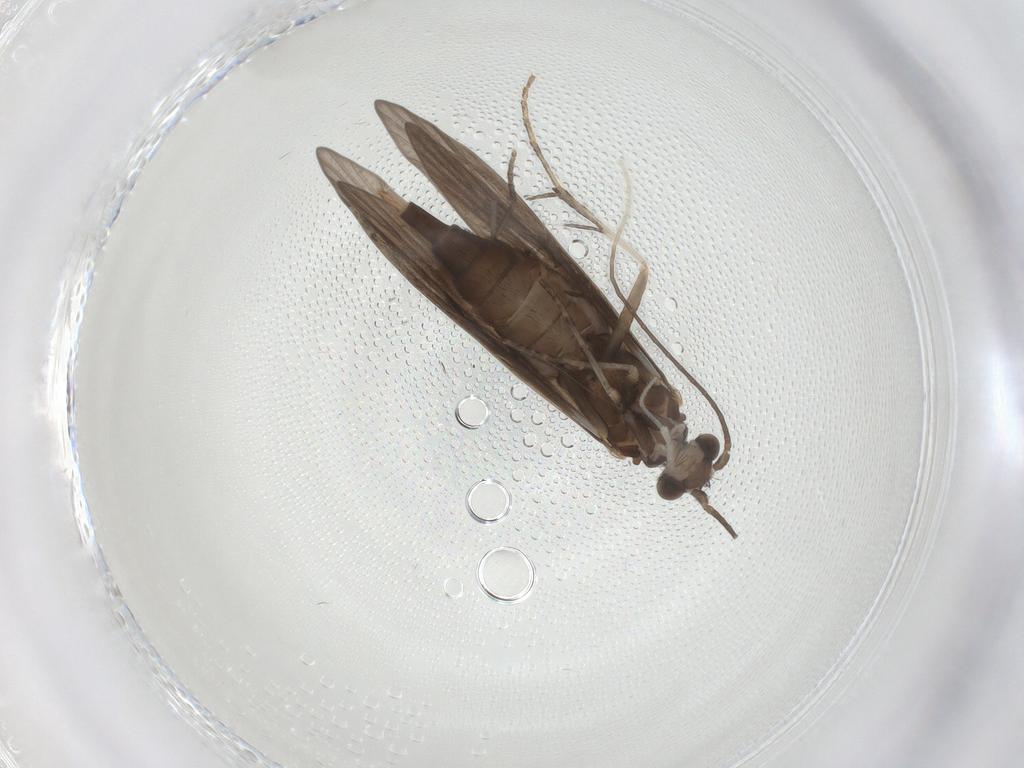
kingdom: Animalia
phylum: Arthropoda
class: Insecta
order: Trichoptera
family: Xiphocentronidae
